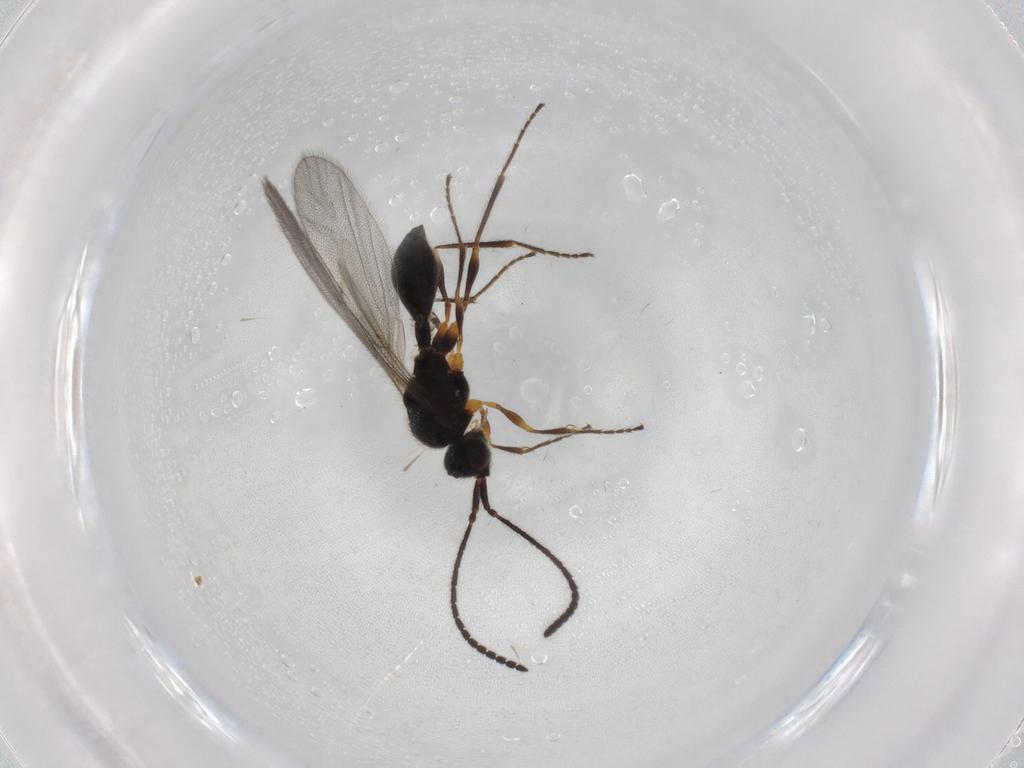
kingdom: Animalia
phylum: Arthropoda
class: Insecta
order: Hymenoptera
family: Diapriidae
